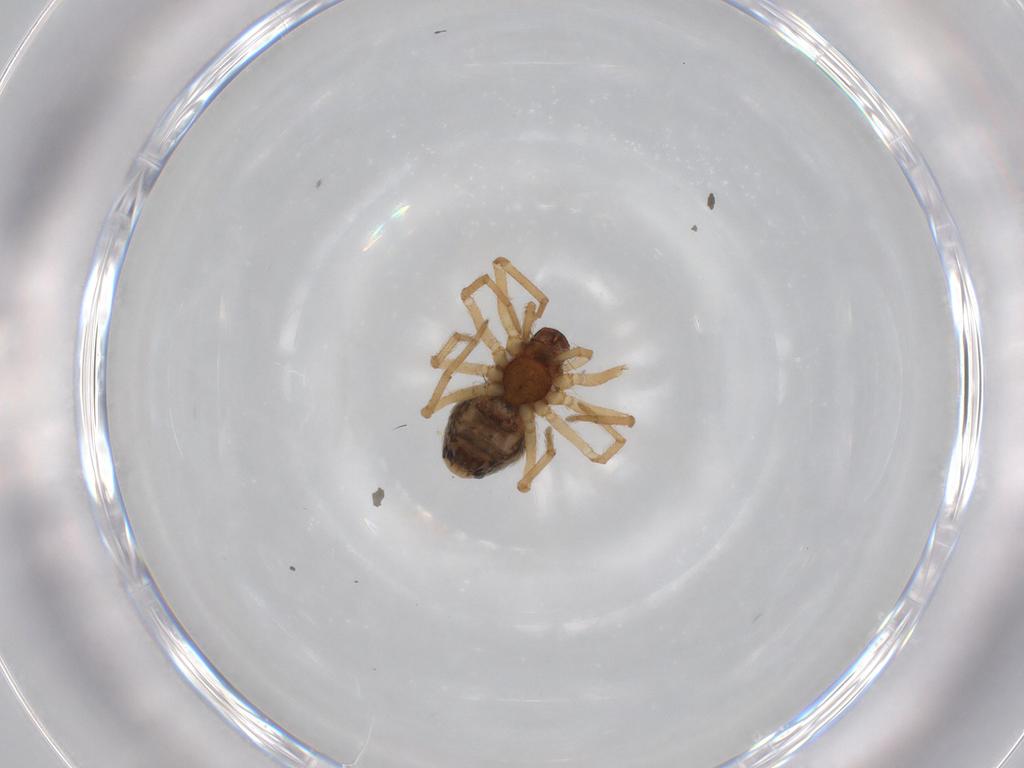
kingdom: Animalia
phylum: Arthropoda
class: Arachnida
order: Araneae
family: Dictynidae
